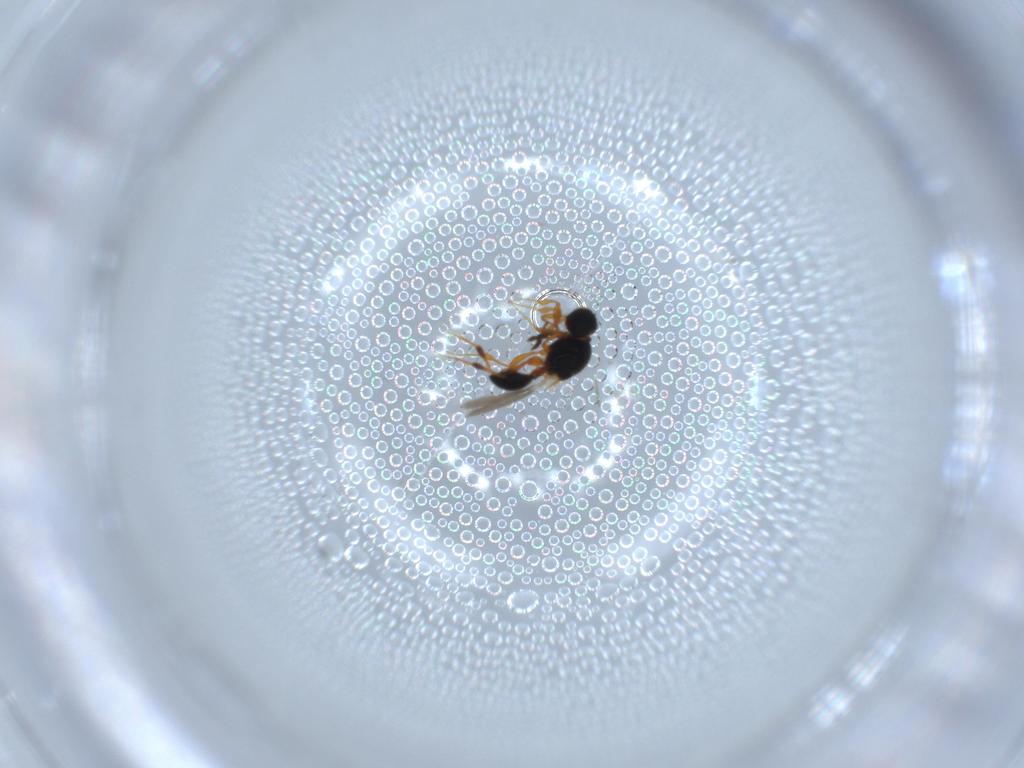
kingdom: Animalia
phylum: Arthropoda
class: Insecta
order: Hymenoptera
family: Platygastridae
